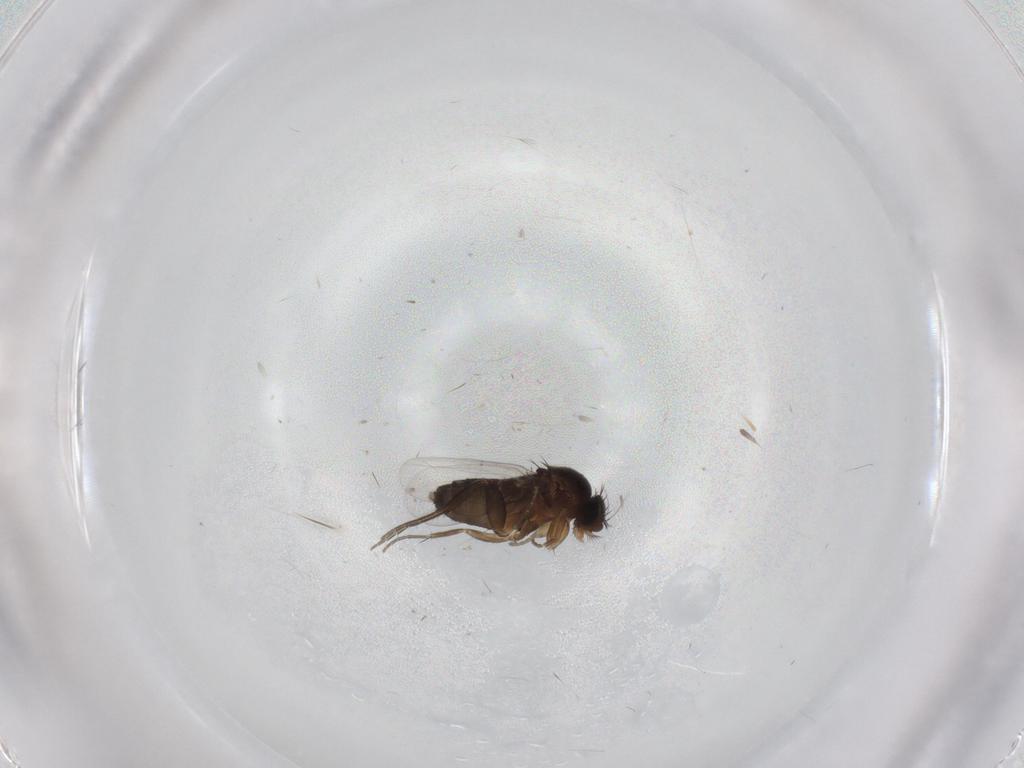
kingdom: Animalia
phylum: Arthropoda
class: Insecta
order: Diptera
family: Phoridae
